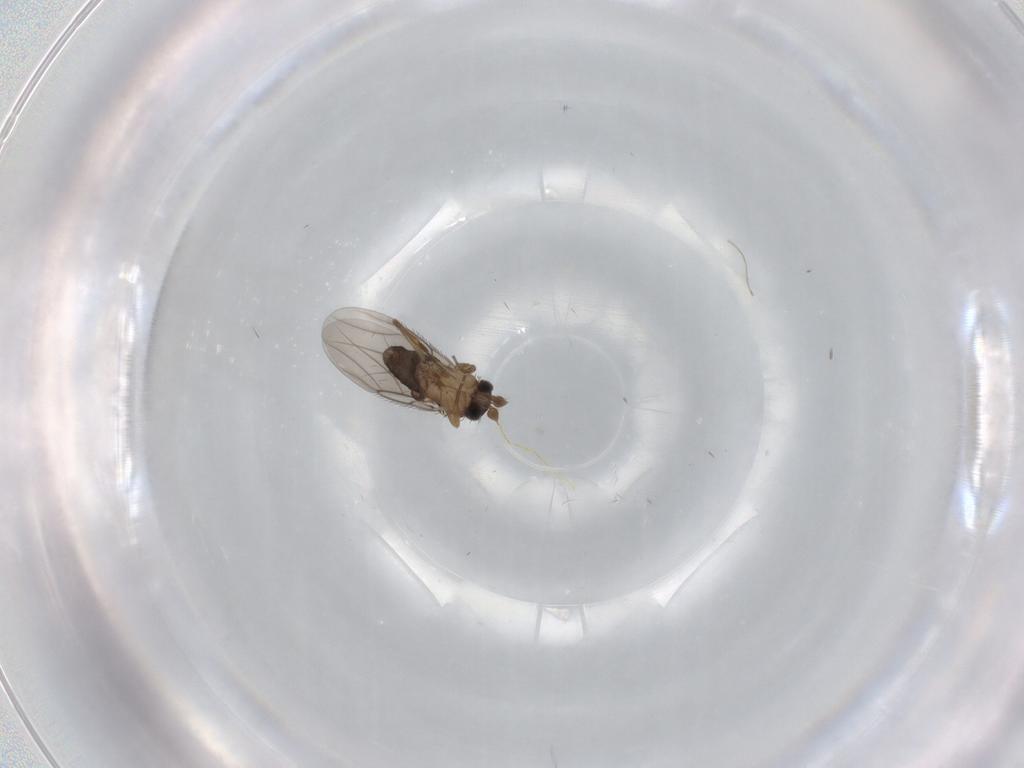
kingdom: Animalia
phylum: Arthropoda
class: Insecta
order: Diptera
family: Phoridae
